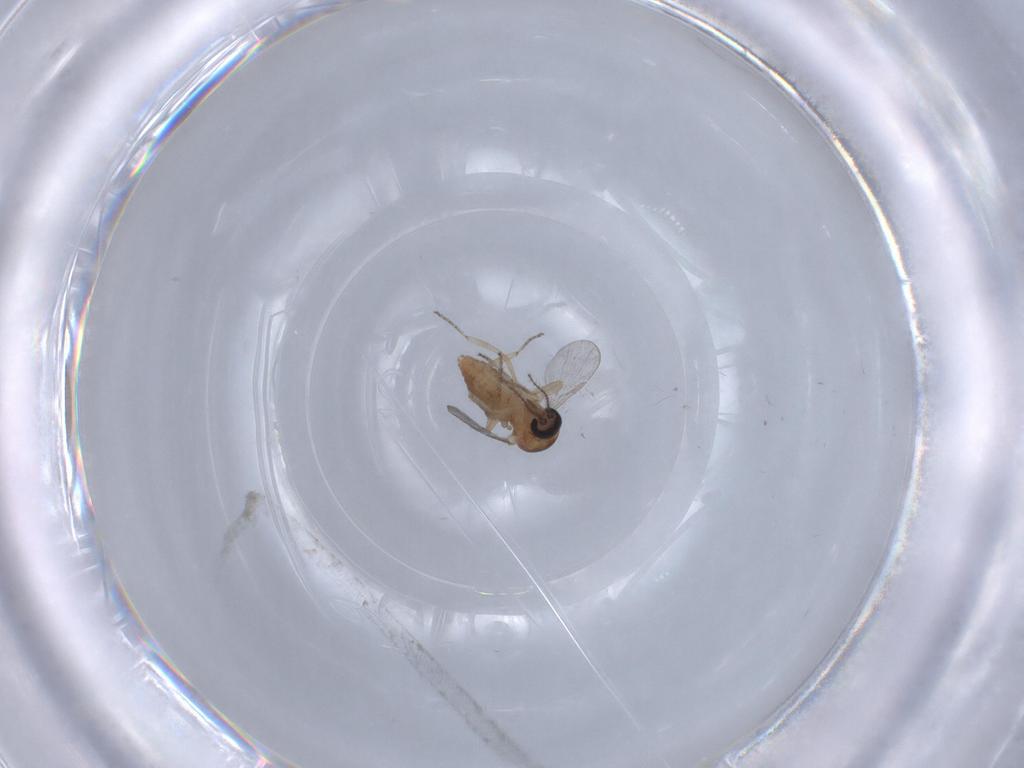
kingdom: Animalia
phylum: Arthropoda
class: Insecta
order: Diptera
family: Ceratopogonidae
